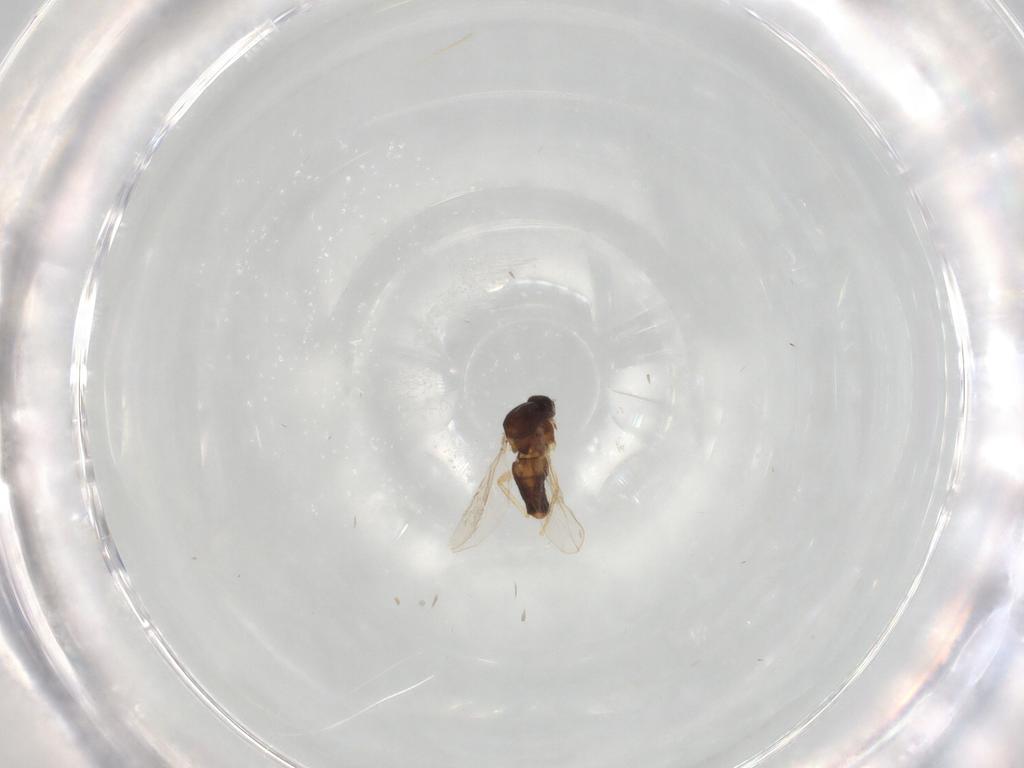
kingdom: Animalia
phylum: Arthropoda
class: Insecta
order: Diptera
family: Ceratopogonidae
